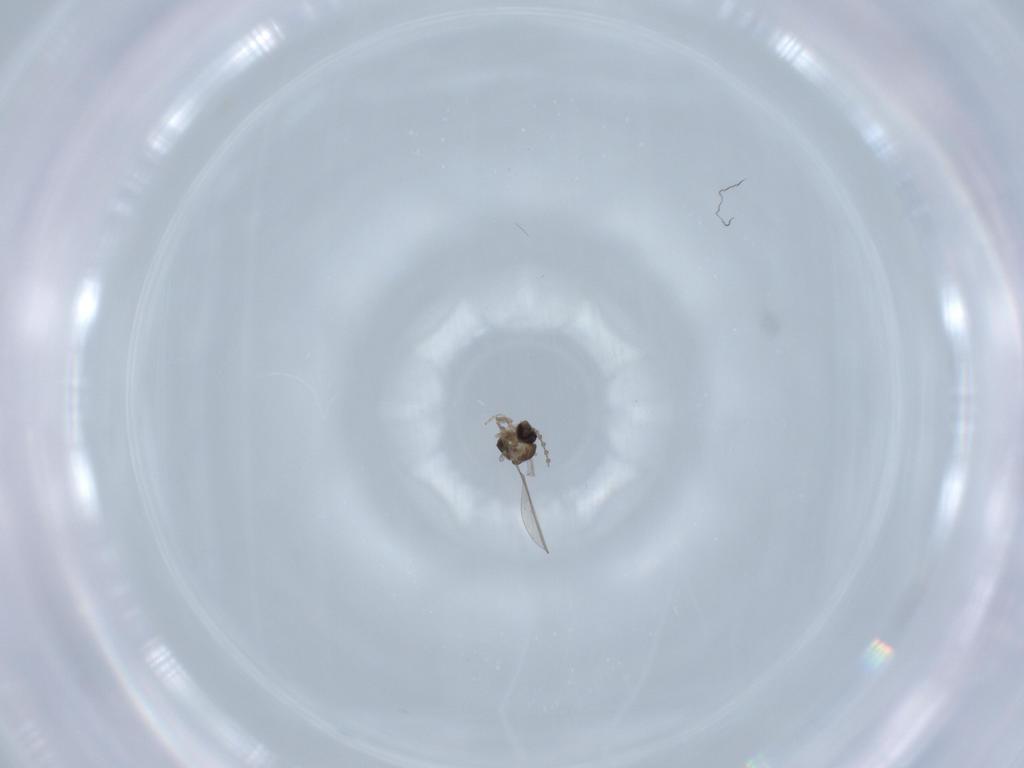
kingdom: Animalia
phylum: Arthropoda
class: Insecta
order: Diptera
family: Cecidomyiidae
